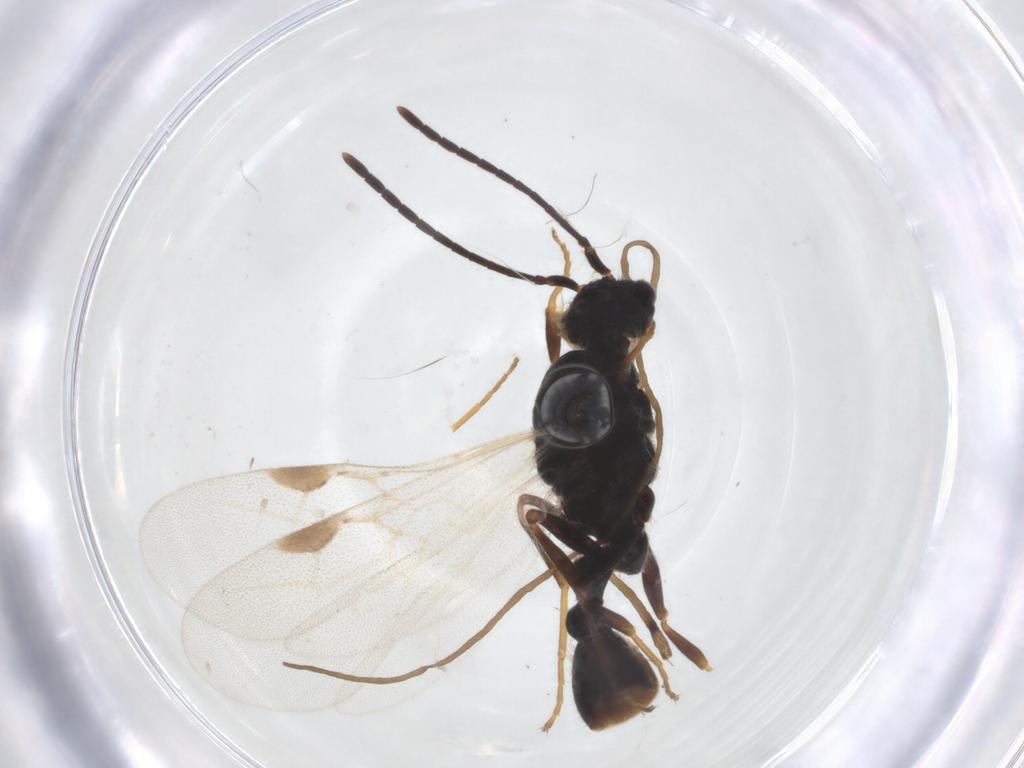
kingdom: Animalia
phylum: Arthropoda
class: Insecta
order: Hymenoptera
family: Formicidae
